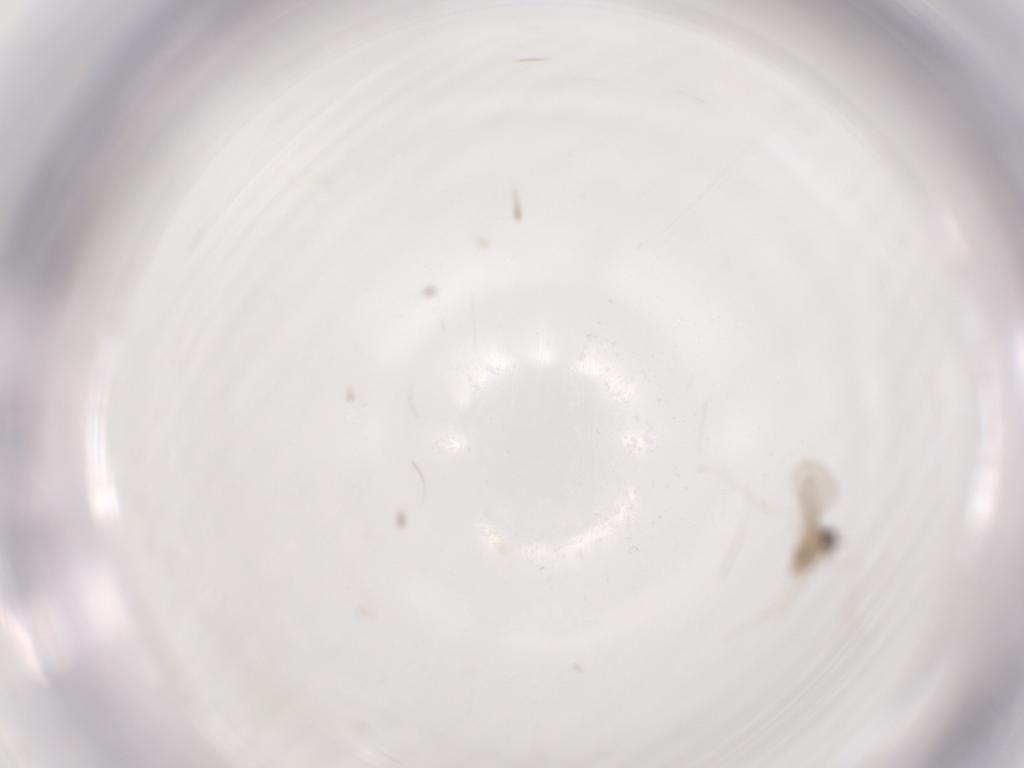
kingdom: Animalia
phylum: Arthropoda
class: Insecta
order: Diptera
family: Cecidomyiidae
